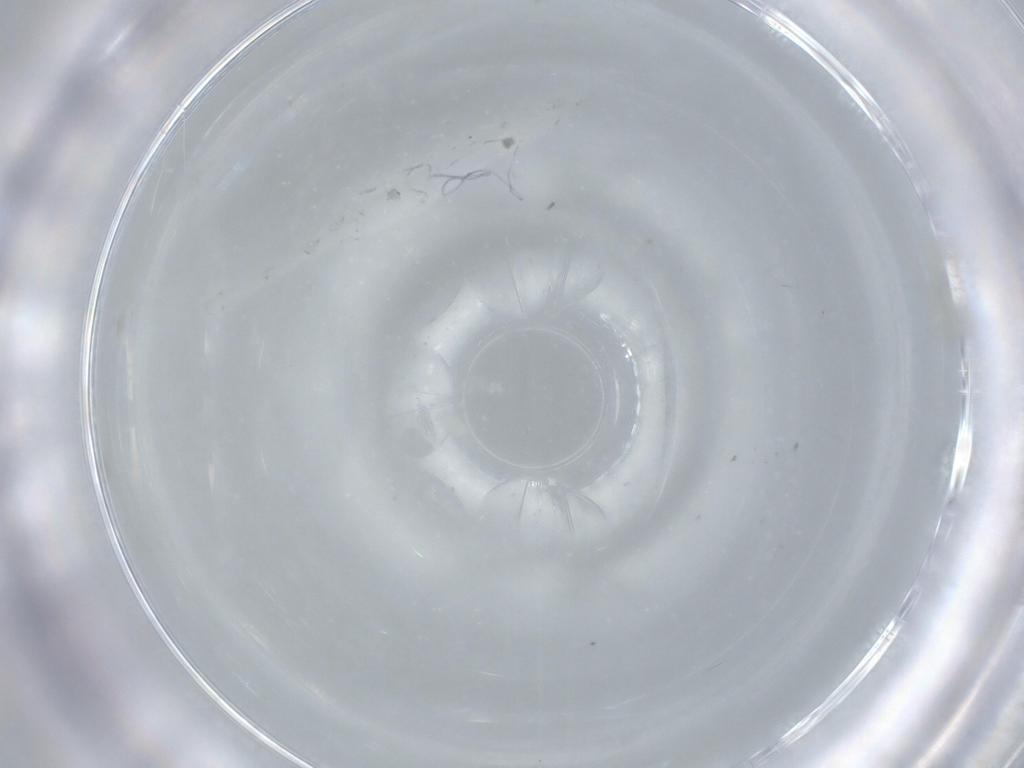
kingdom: Animalia
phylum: Arthropoda
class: Insecta
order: Diptera
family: Sciaridae
